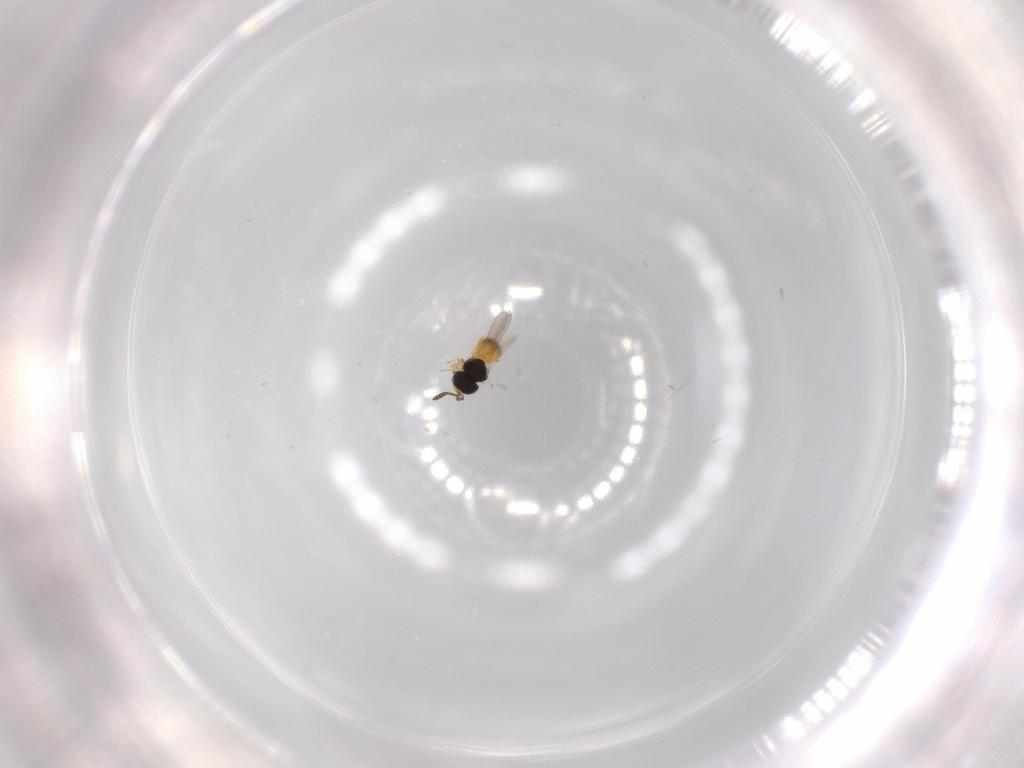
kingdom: Animalia
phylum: Arthropoda
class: Insecta
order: Hymenoptera
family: Scelionidae
